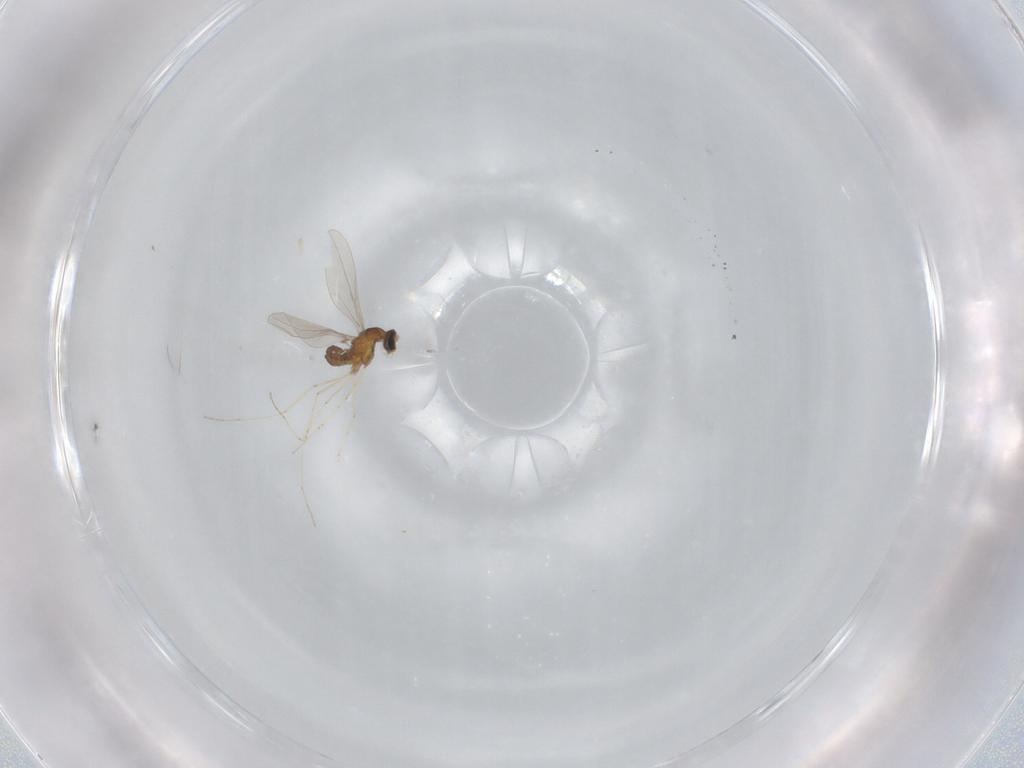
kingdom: Animalia
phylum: Arthropoda
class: Insecta
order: Diptera
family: Cecidomyiidae
